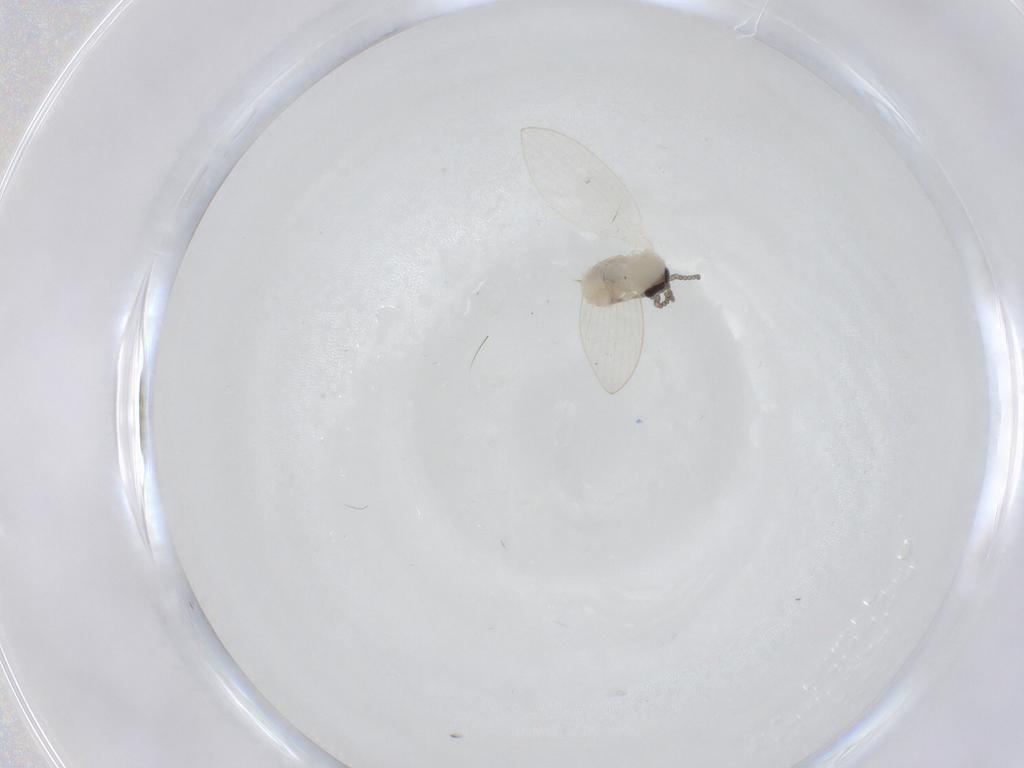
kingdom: Animalia
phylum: Arthropoda
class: Insecta
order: Diptera
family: Psychodidae
